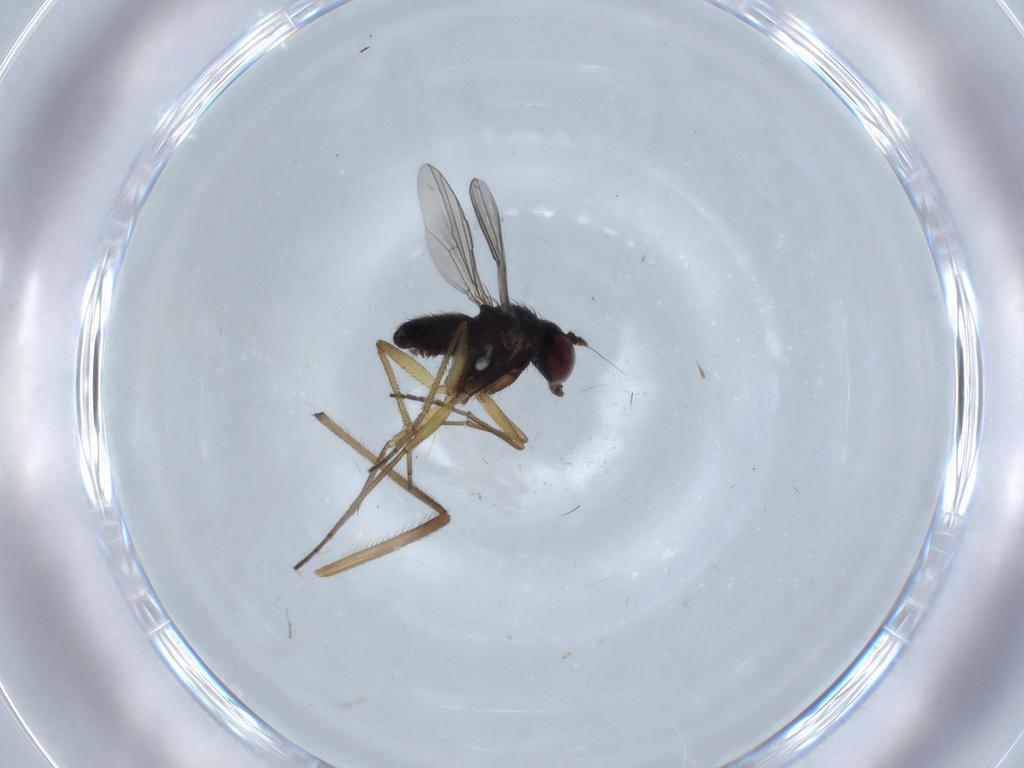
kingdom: Animalia
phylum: Arthropoda
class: Insecta
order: Diptera
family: Dolichopodidae
